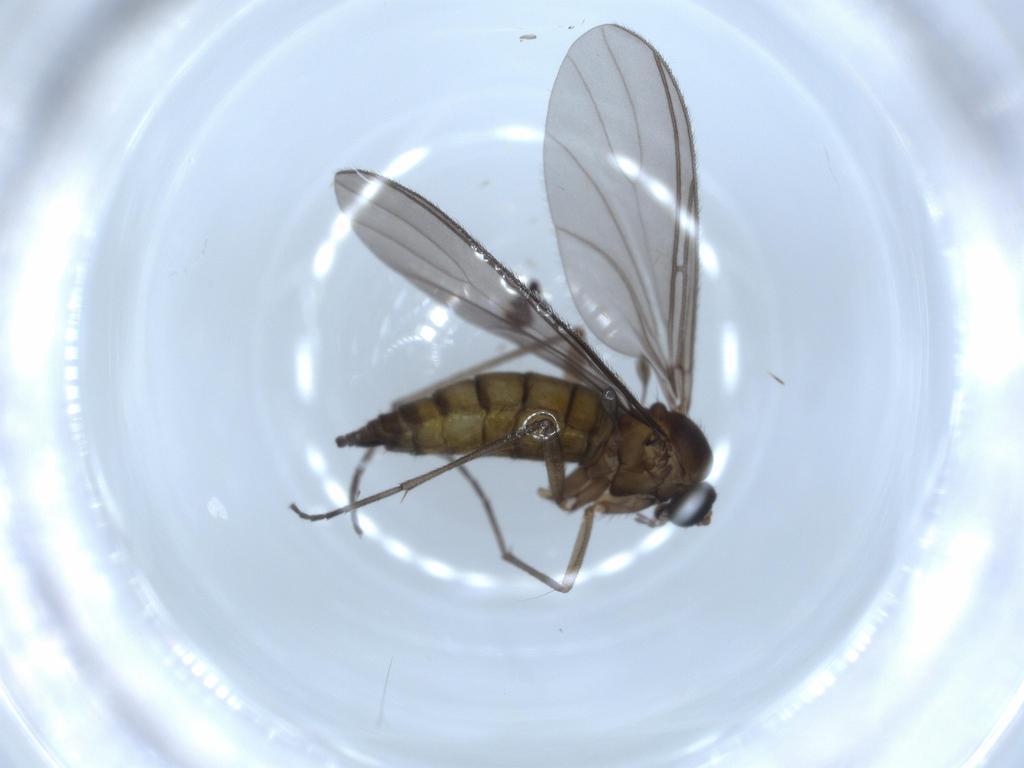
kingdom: Animalia
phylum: Arthropoda
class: Insecta
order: Diptera
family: Sciaridae
